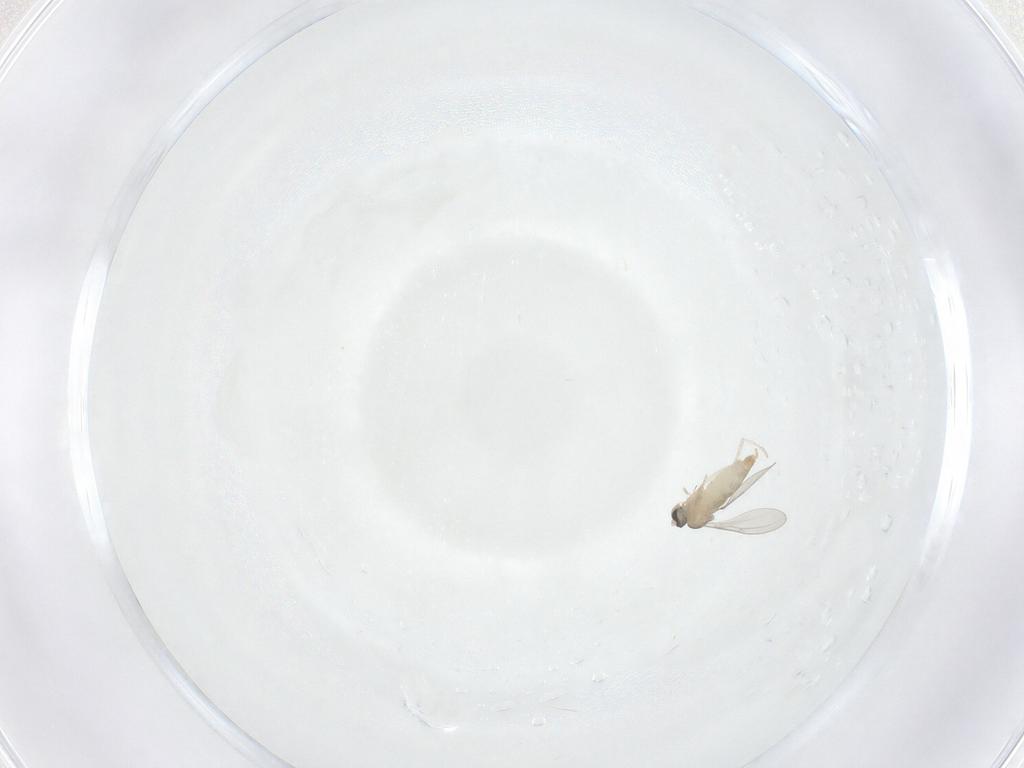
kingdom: Animalia
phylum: Arthropoda
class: Insecta
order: Diptera
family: Cecidomyiidae
